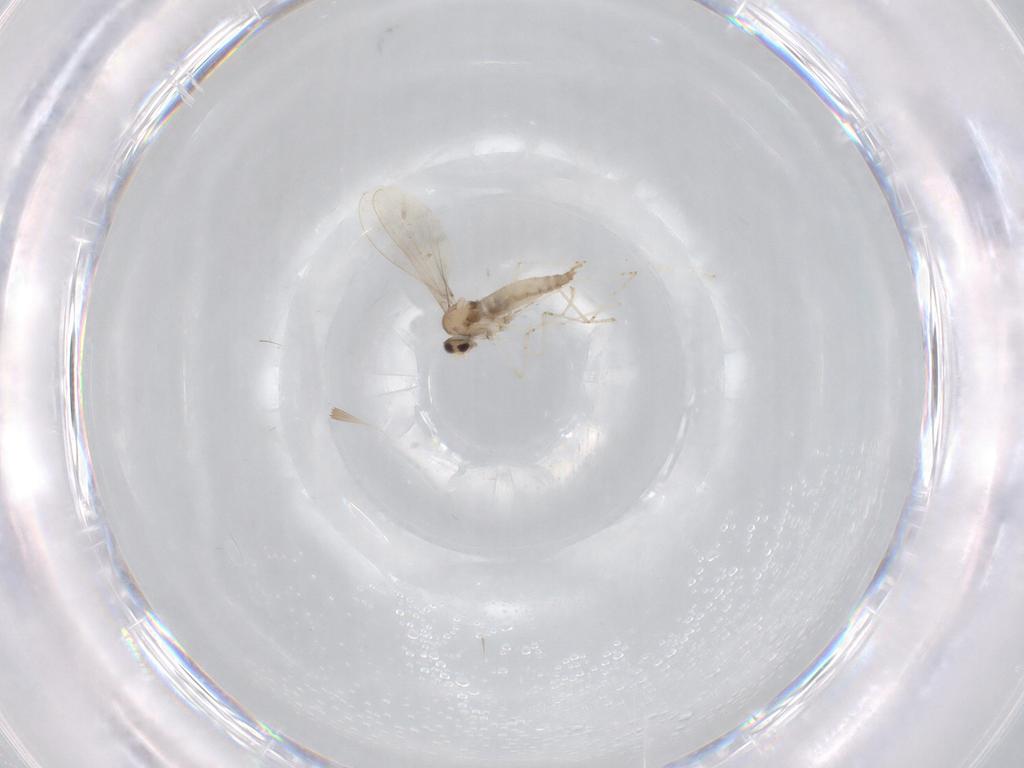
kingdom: Animalia
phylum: Arthropoda
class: Insecta
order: Diptera
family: Cecidomyiidae
